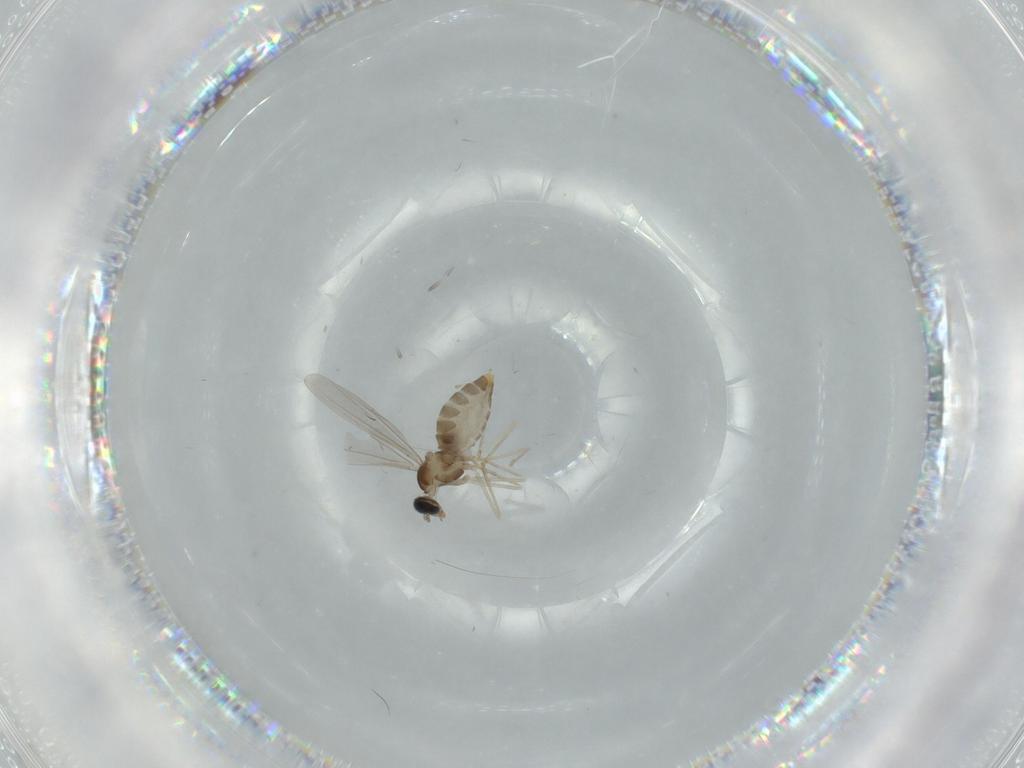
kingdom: Animalia
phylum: Arthropoda
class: Insecta
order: Diptera
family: Cecidomyiidae
